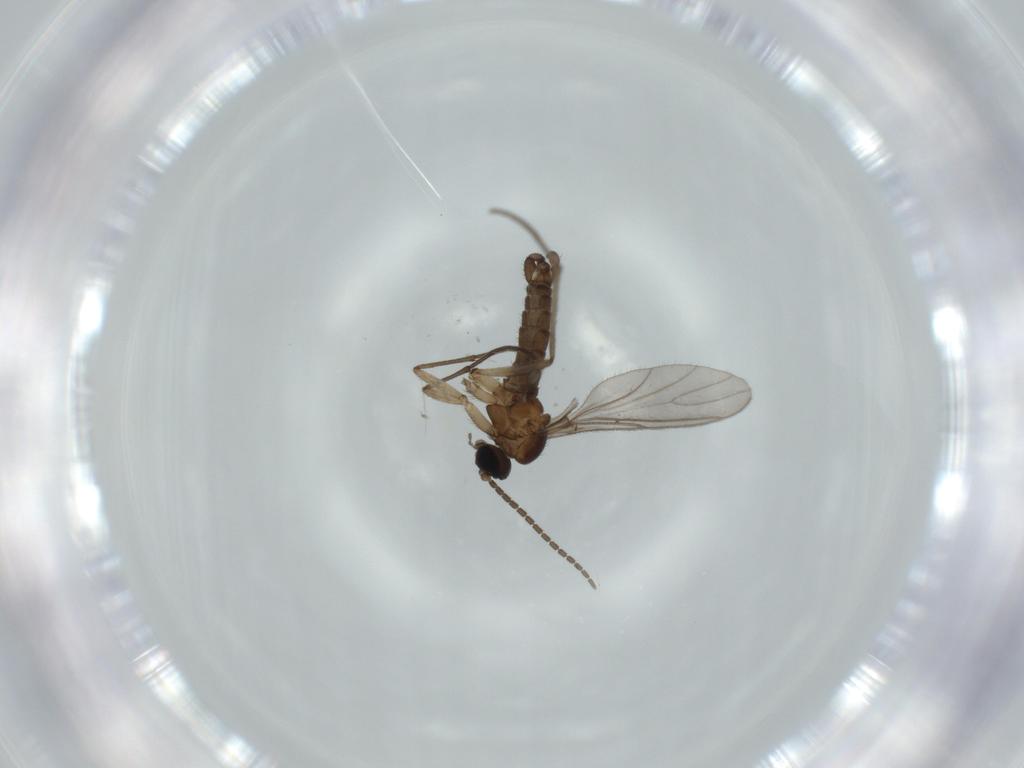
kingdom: Animalia
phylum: Arthropoda
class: Insecta
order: Diptera
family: Sciaridae
